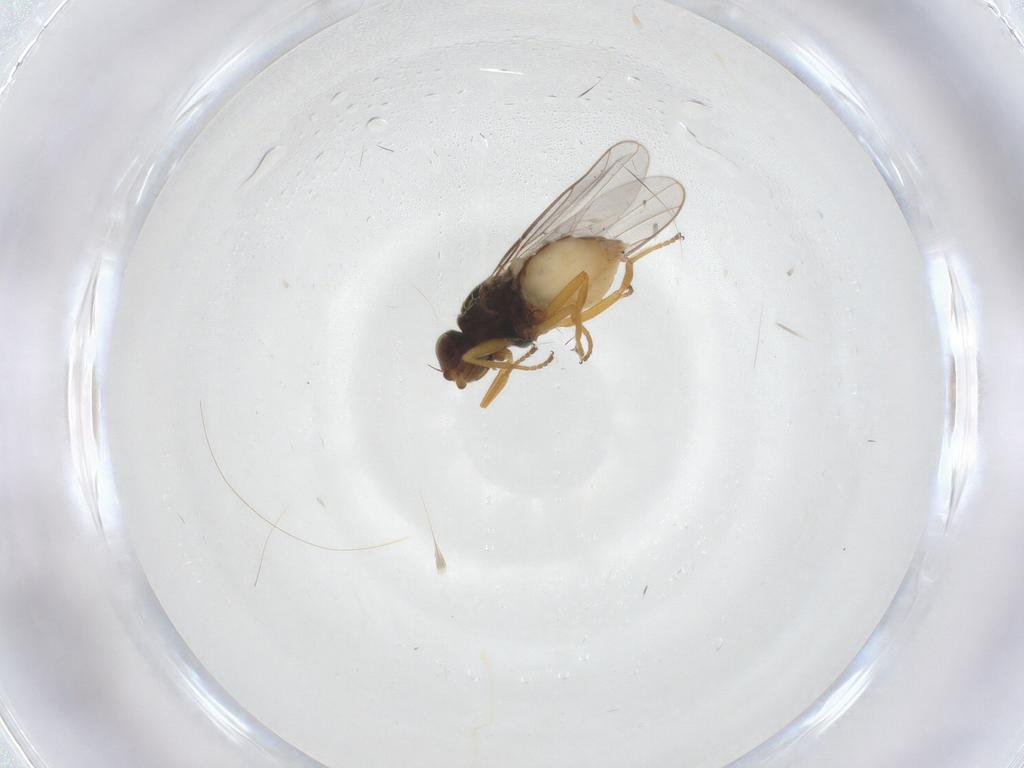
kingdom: Animalia
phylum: Arthropoda
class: Insecta
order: Diptera
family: Chloropidae
